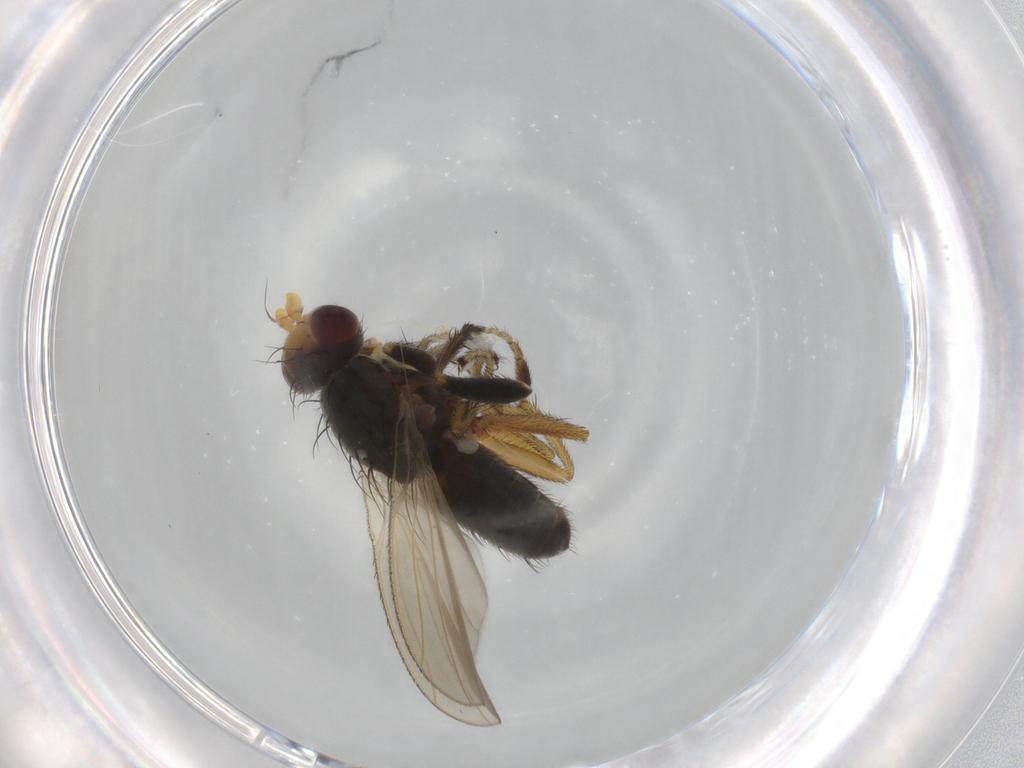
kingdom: Animalia
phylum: Arthropoda
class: Insecta
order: Diptera
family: Ulidiidae
